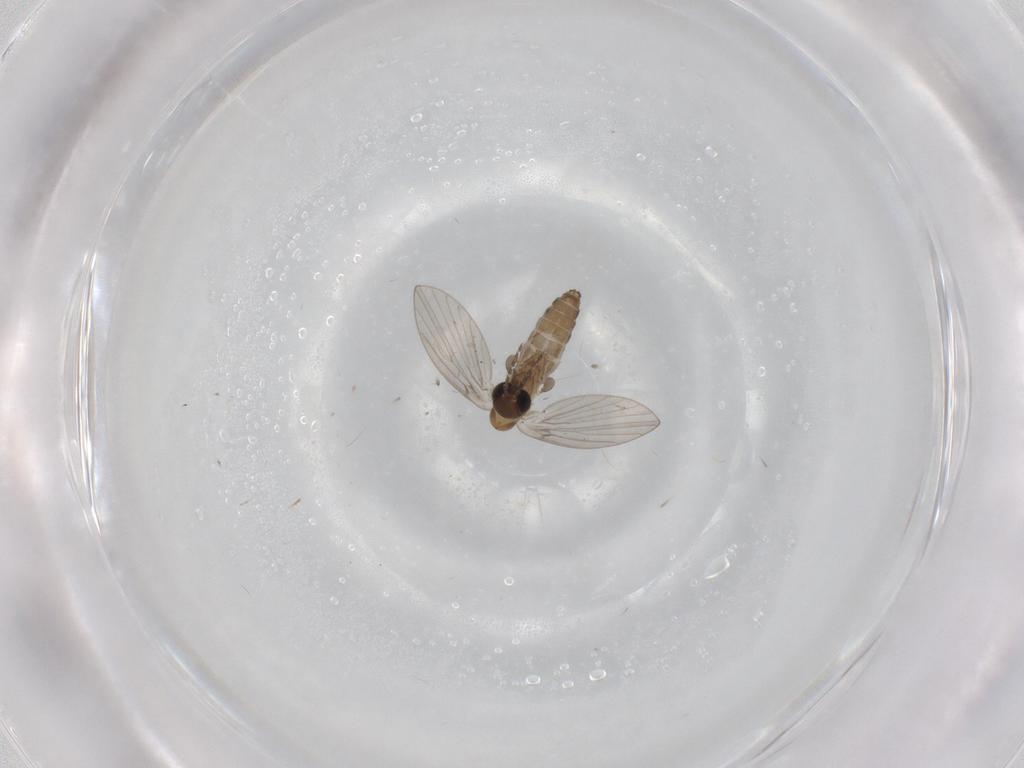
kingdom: Animalia
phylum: Arthropoda
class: Insecta
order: Diptera
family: Psychodidae
